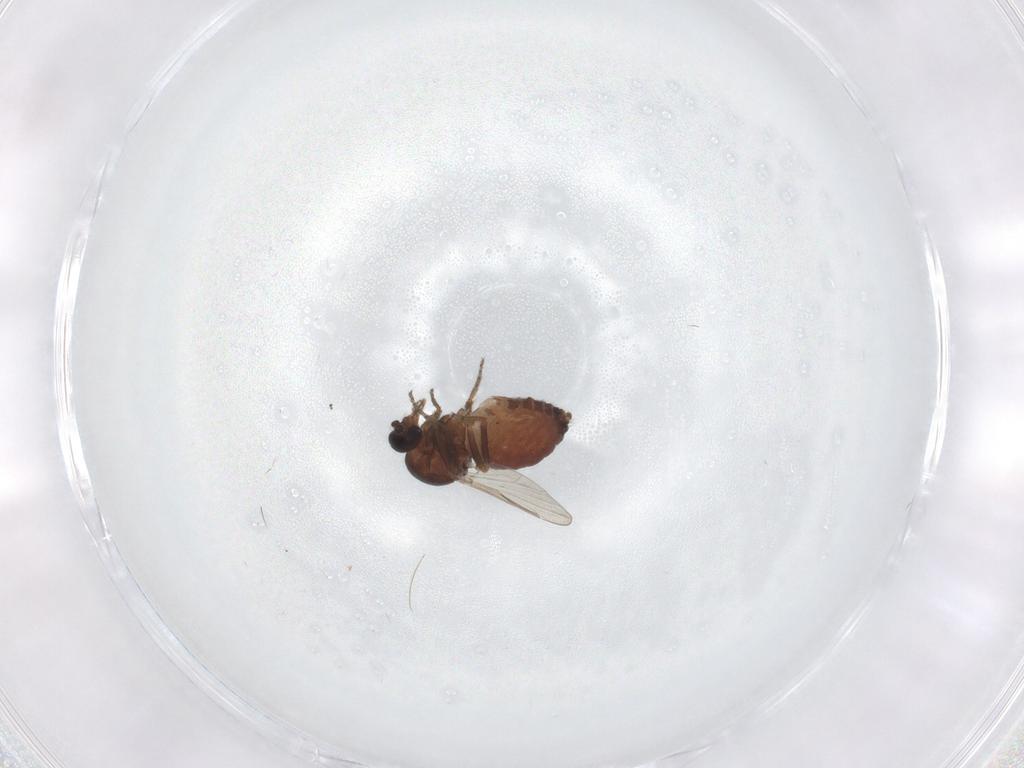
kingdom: Animalia
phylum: Arthropoda
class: Insecta
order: Diptera
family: Ceratopogonidae
